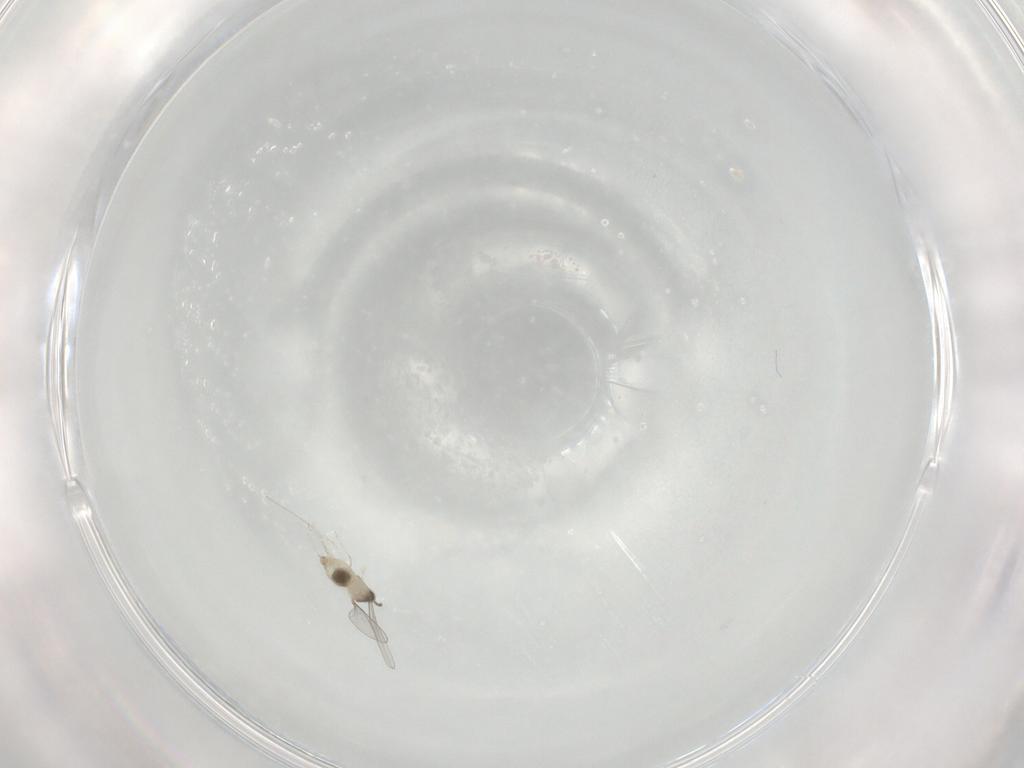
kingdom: Animalia
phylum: Arthropoda
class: Insecta
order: Diptera
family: Cecidomyiidae
